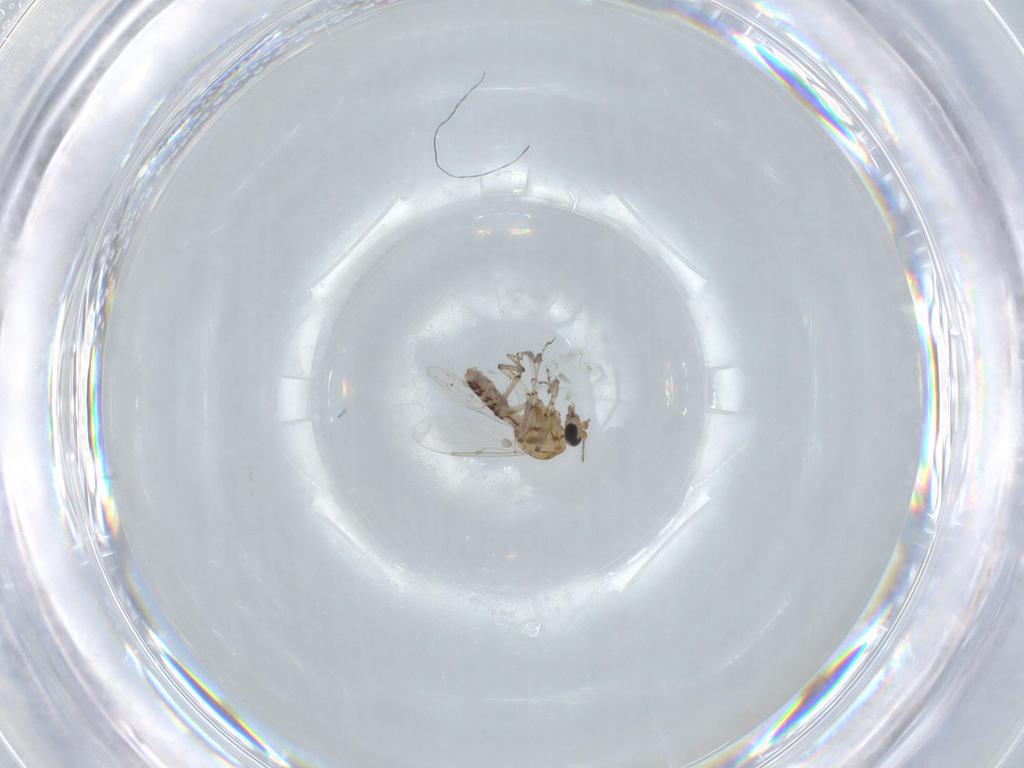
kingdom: Animalia
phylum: Arthropoda
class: Insecta
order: Diptera
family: Ceratopogonidae
